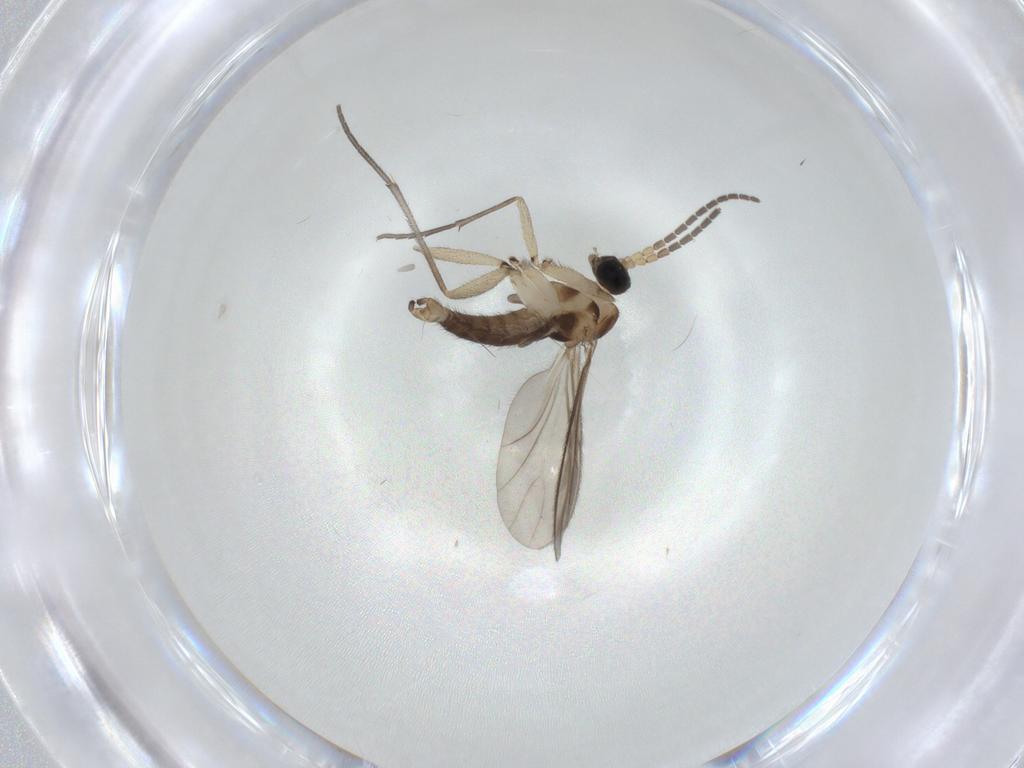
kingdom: Animalia
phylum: Arthropoda
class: Insecta
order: Diptera
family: Sciaridae
